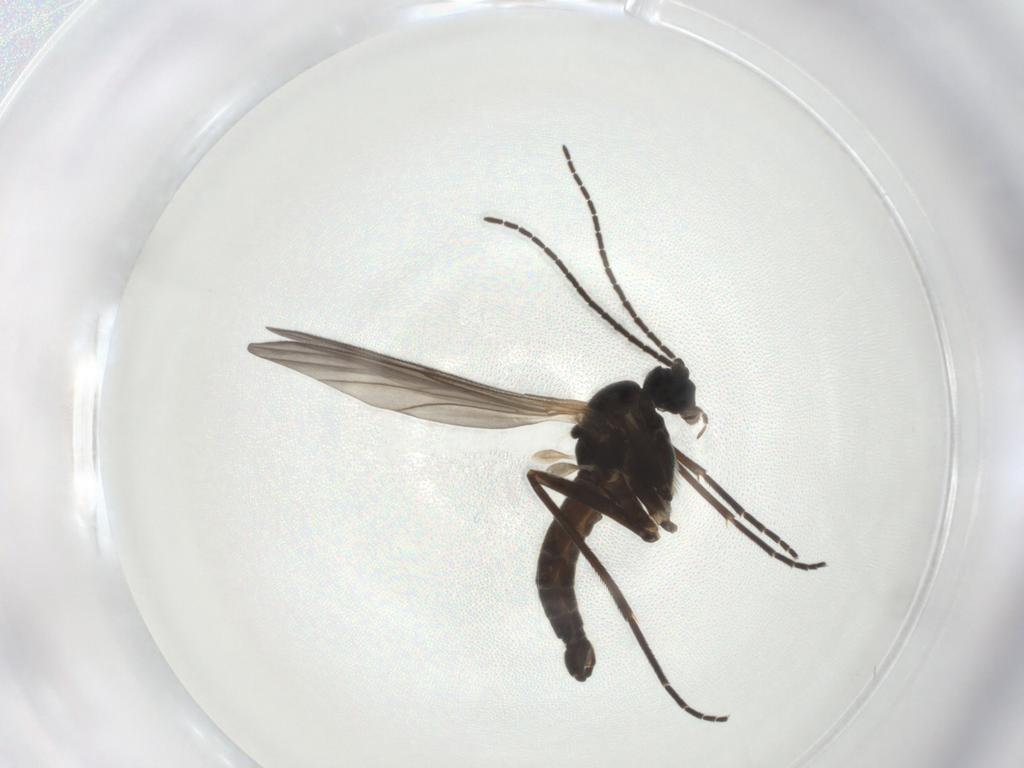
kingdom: Animalia
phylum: Arthropoda
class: Insecta
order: Diptera
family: Sciaridae
